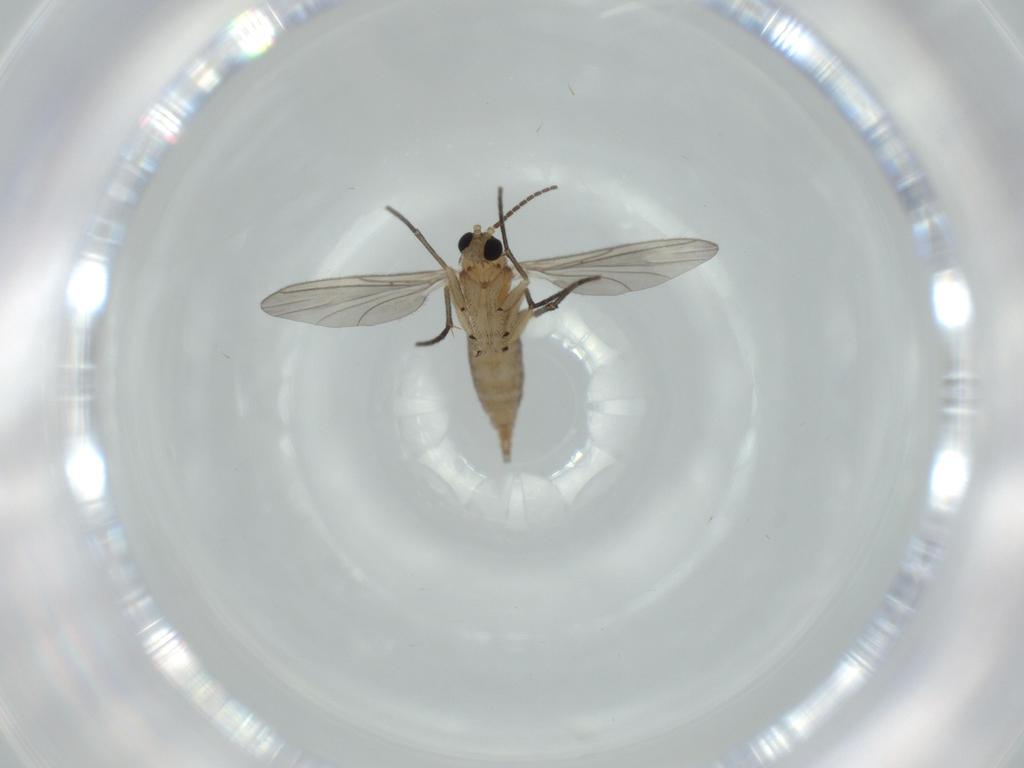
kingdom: Animalia
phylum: Arthropoda
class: Insecta
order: Diptera
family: Sciaridae
